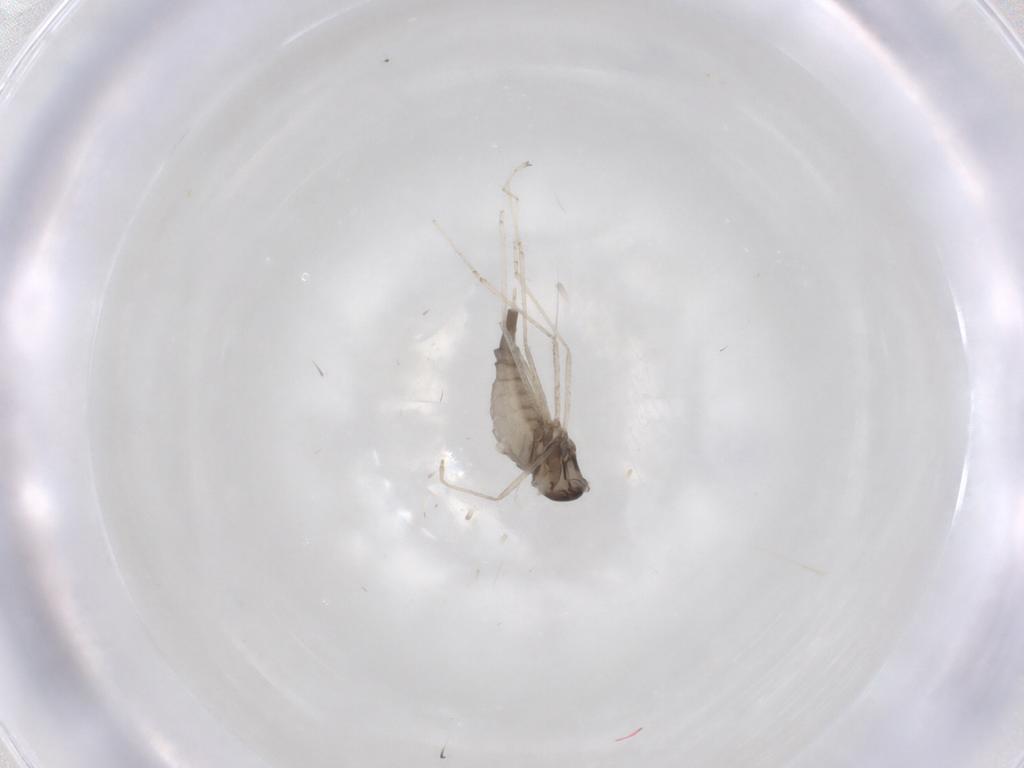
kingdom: Animalia
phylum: Arthropoda
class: Insecta
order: Diptera
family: Cecidomyiidae
